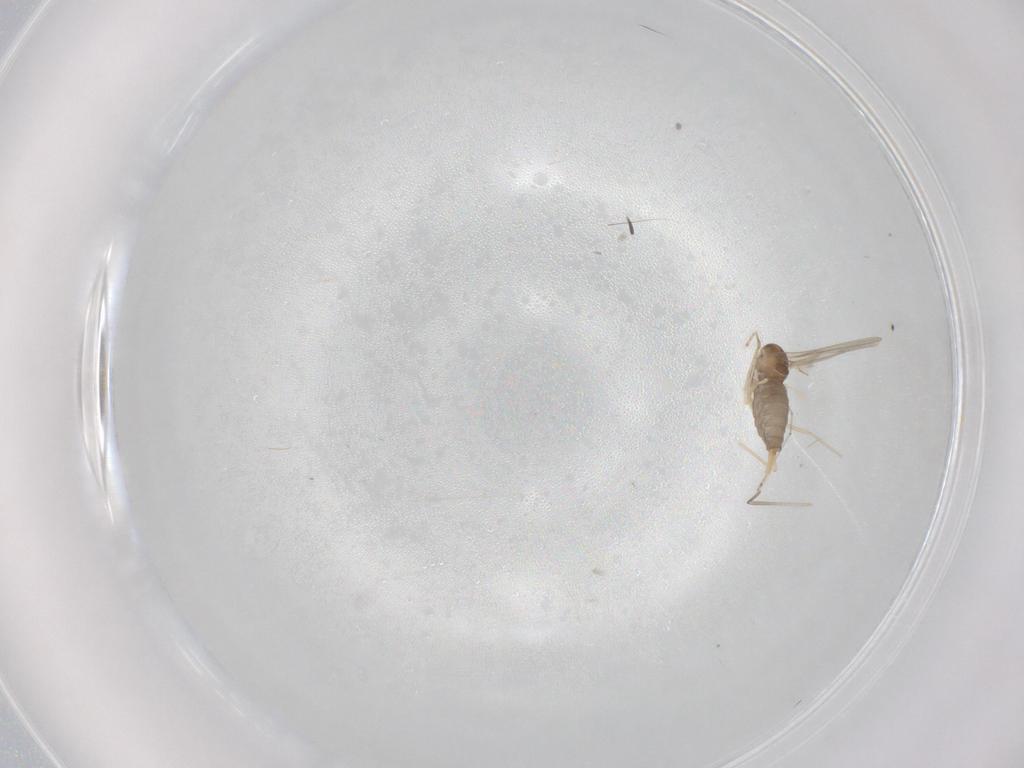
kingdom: Animalia
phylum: Arthropoda
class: Insecta
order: Diptera
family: Cecidomyiidae
